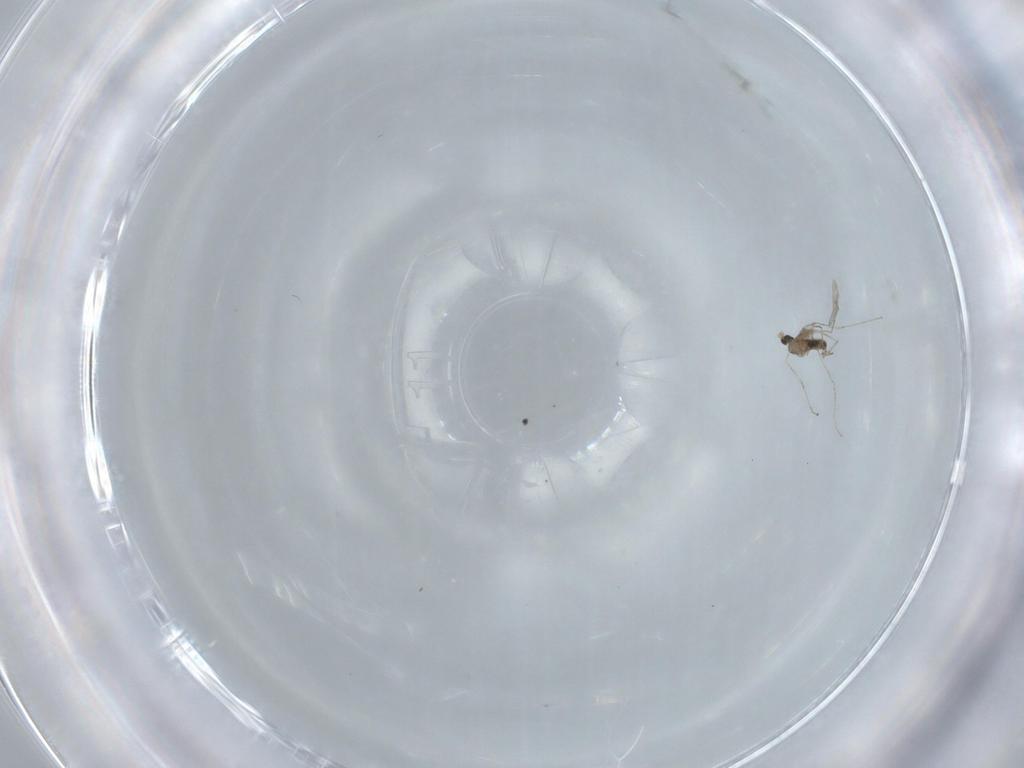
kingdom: Animalia
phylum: Arthropoda
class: Insecta
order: Diptera
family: Cecidomyiidae
